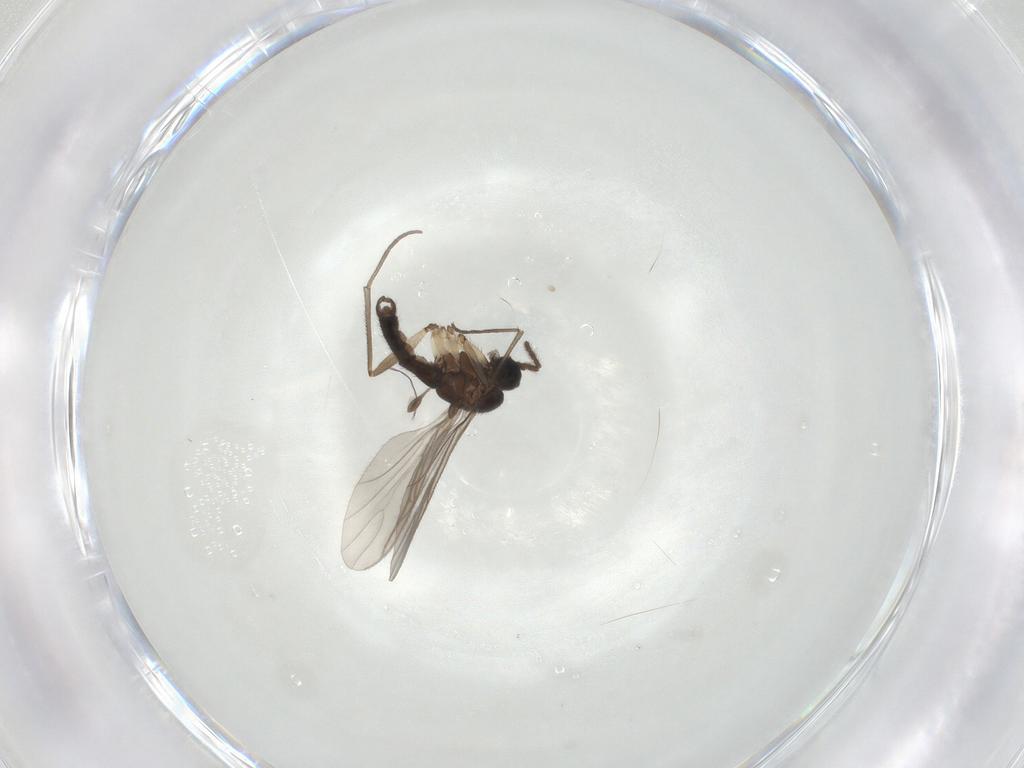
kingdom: Animalia
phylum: Arthropoda
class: Insecta
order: Diptera
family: Sciaridae
